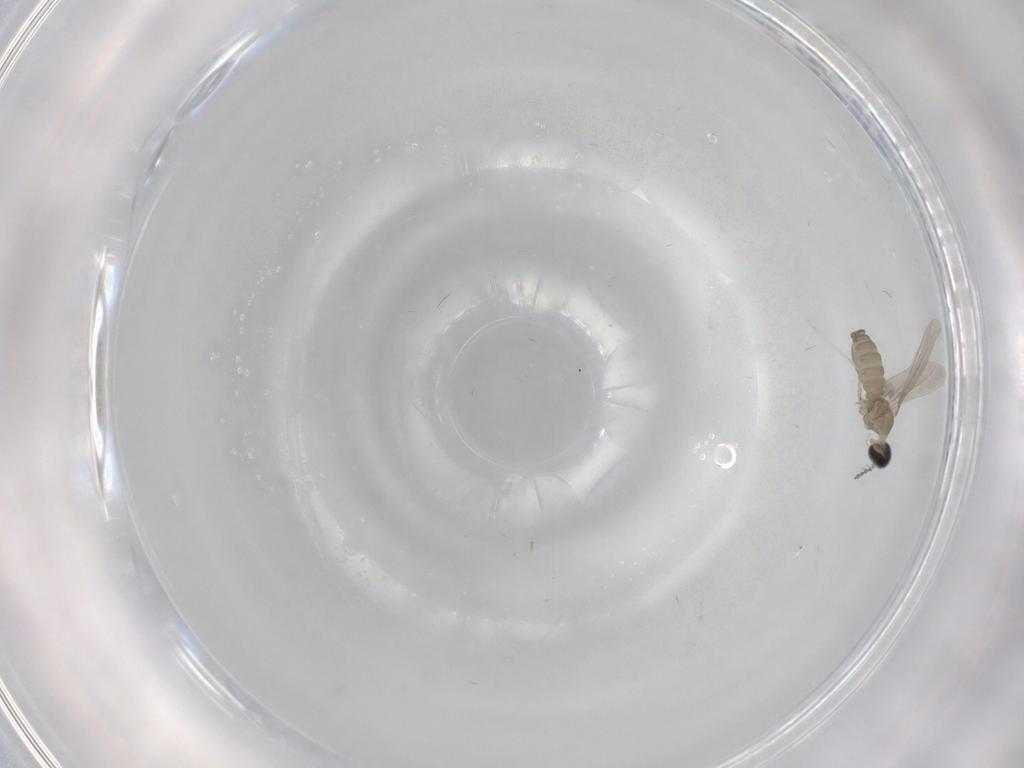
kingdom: Animalia
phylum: Arthropoda
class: Insecta
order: Diptera
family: Cecidomyiidae
